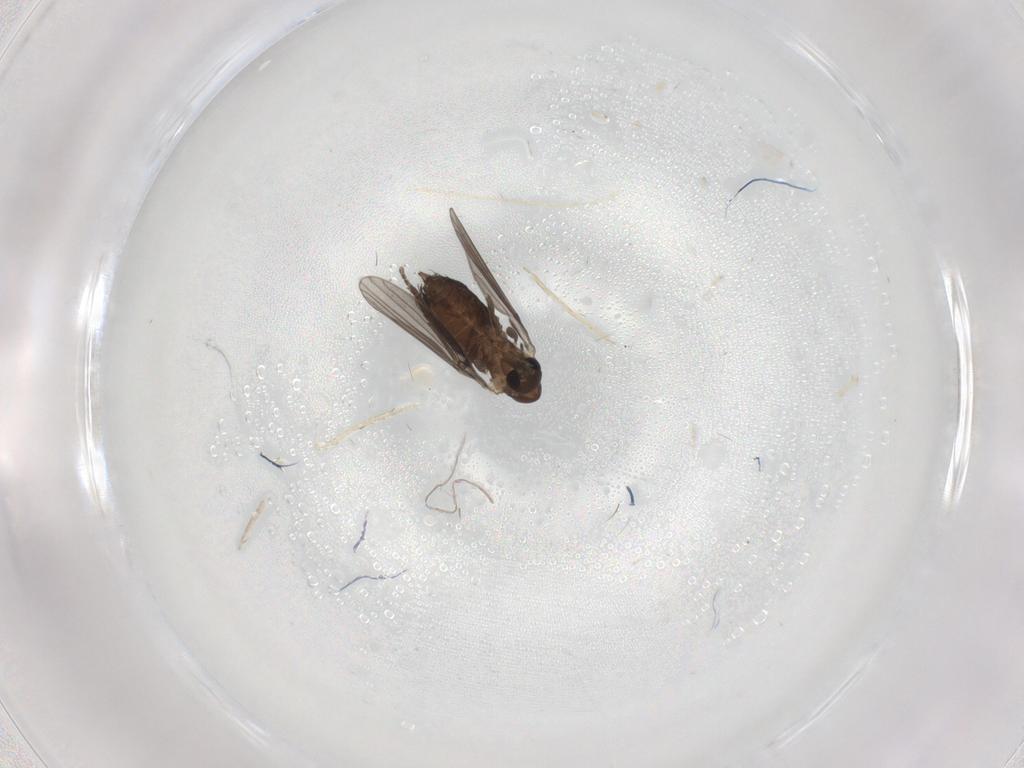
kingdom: Animalia
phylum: Arthropoda
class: Insecta
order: Diptera
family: Psychodidae
